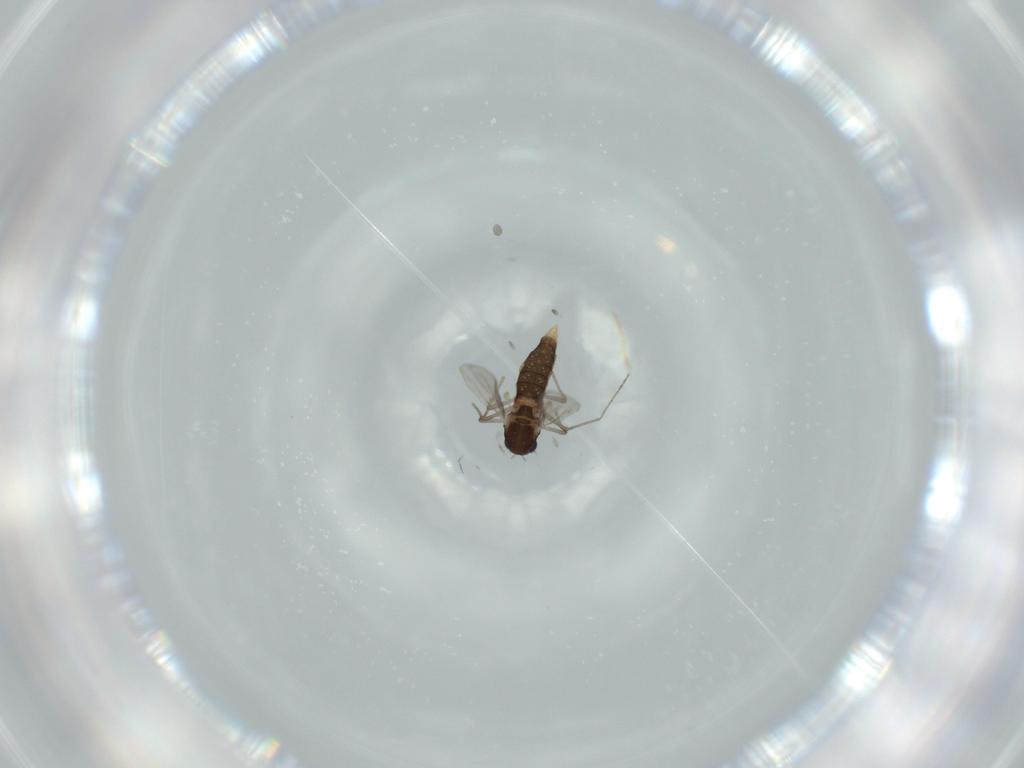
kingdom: Animalia
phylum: Arthropoda
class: Insecta
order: Diptera
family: Chironomidae
